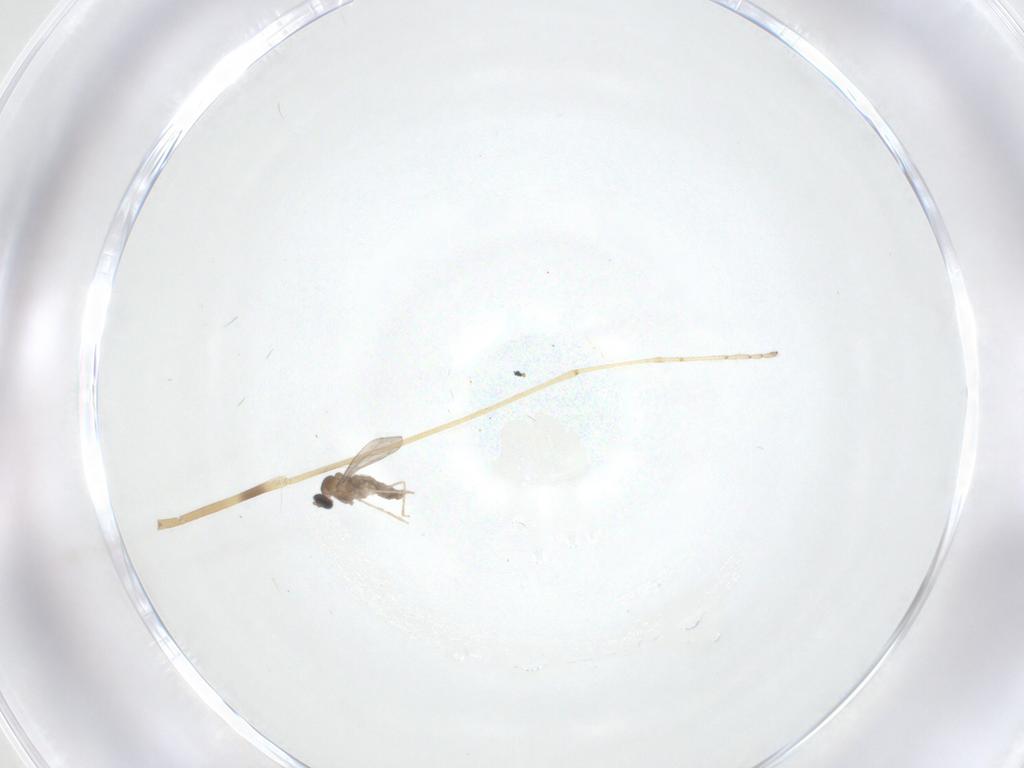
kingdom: Animalia
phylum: Arthropoda
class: Insecta
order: Diptera
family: Limoniidae
